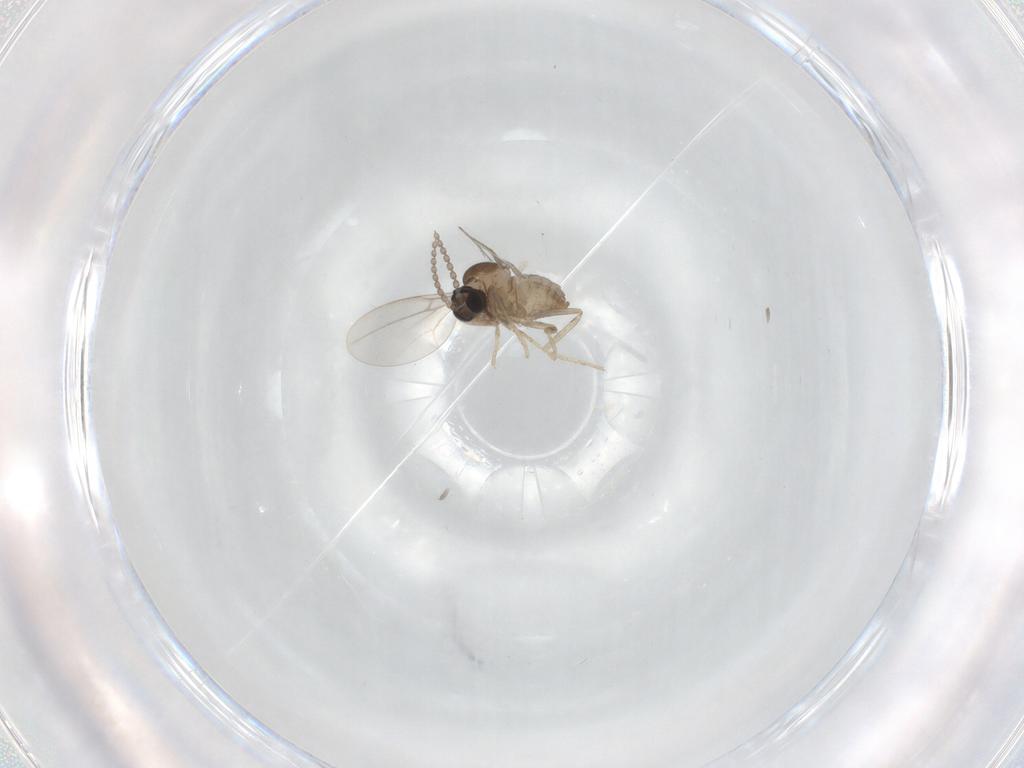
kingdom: Animalia
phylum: Arthropoda
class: Insecta
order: Diptera
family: Cecidomyiidae
